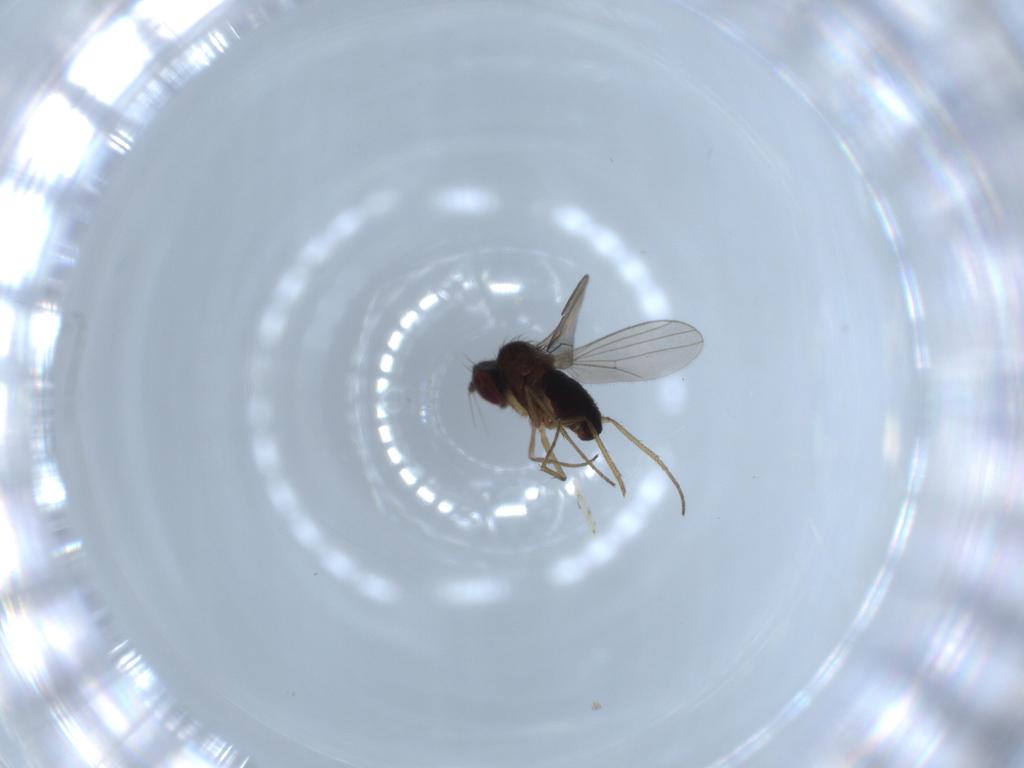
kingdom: Animalia
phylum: Arthropoda
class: Insecta
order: Diptera
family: Dolichopodidae
